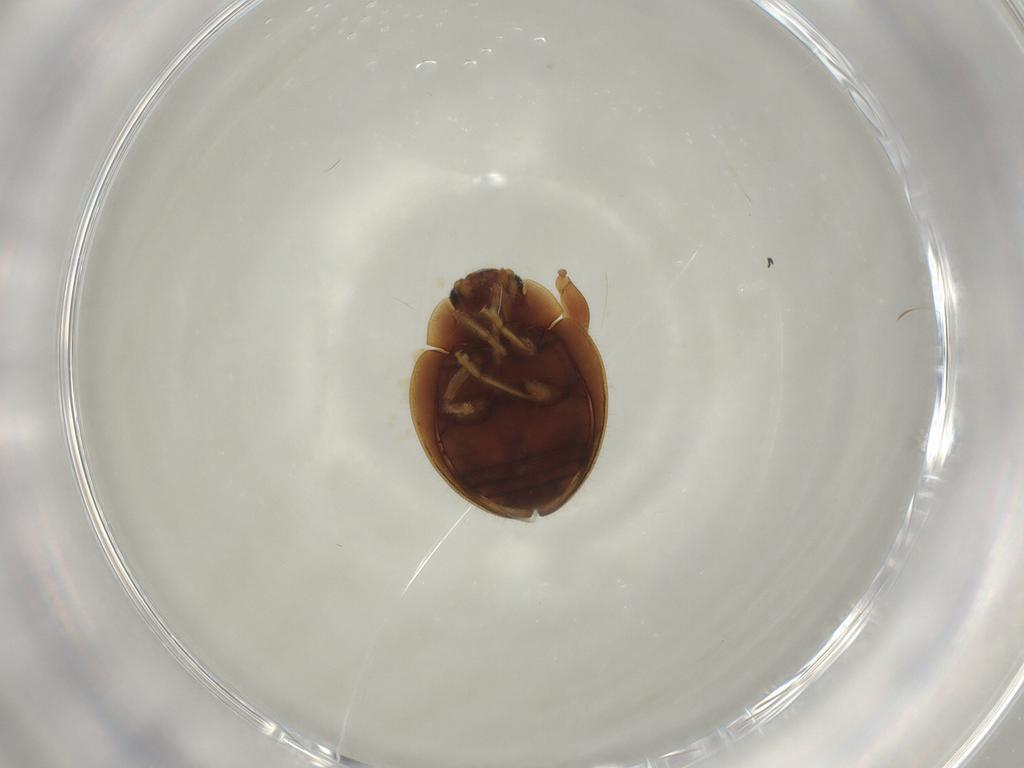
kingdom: Animalia
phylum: Arthropoda
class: Insecta
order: Coleoptera
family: Coccinellidae
